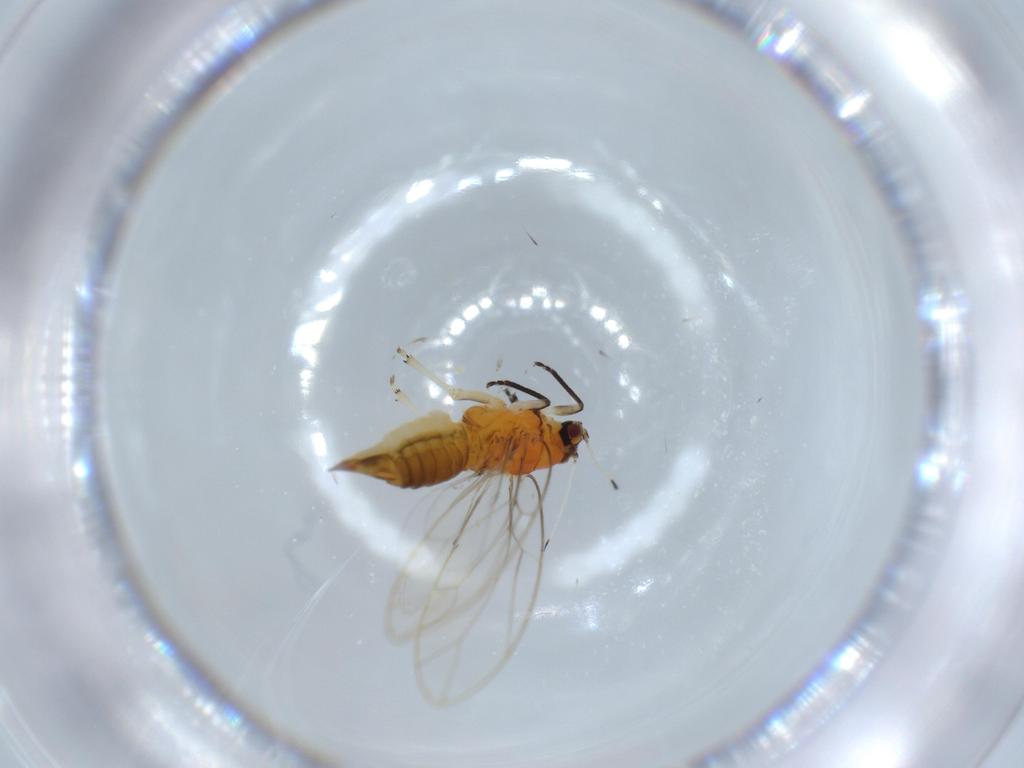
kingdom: Animalia
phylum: Arthropoda
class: Insecta
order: Hemiptera
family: Triozidae
